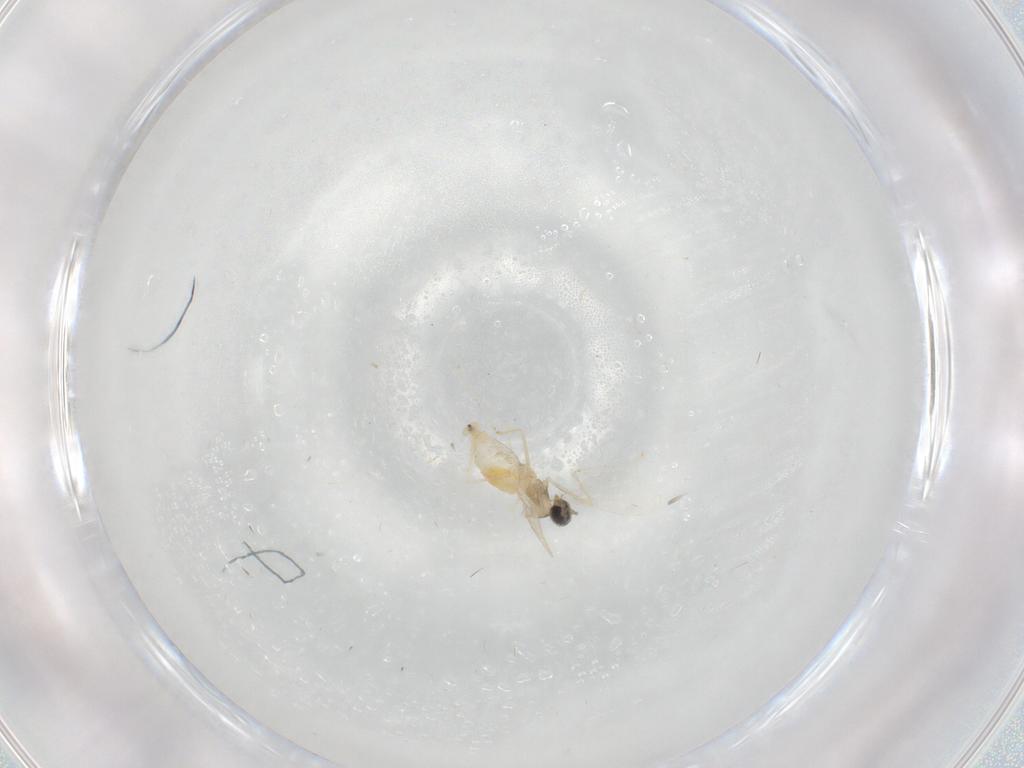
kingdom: Animalia
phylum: Arthropoda
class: Insecta
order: Diptera
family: Cecidomyiidae
